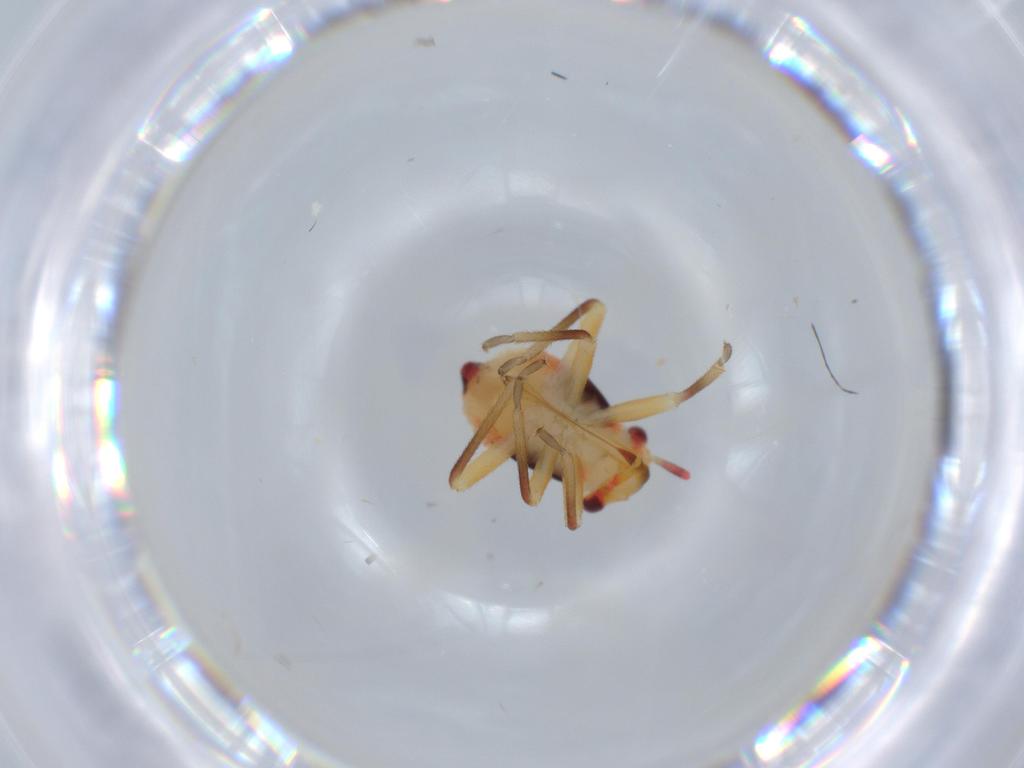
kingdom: Animalia
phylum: Arthropoda
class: Insecta
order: Hemiptera
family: Miridae
